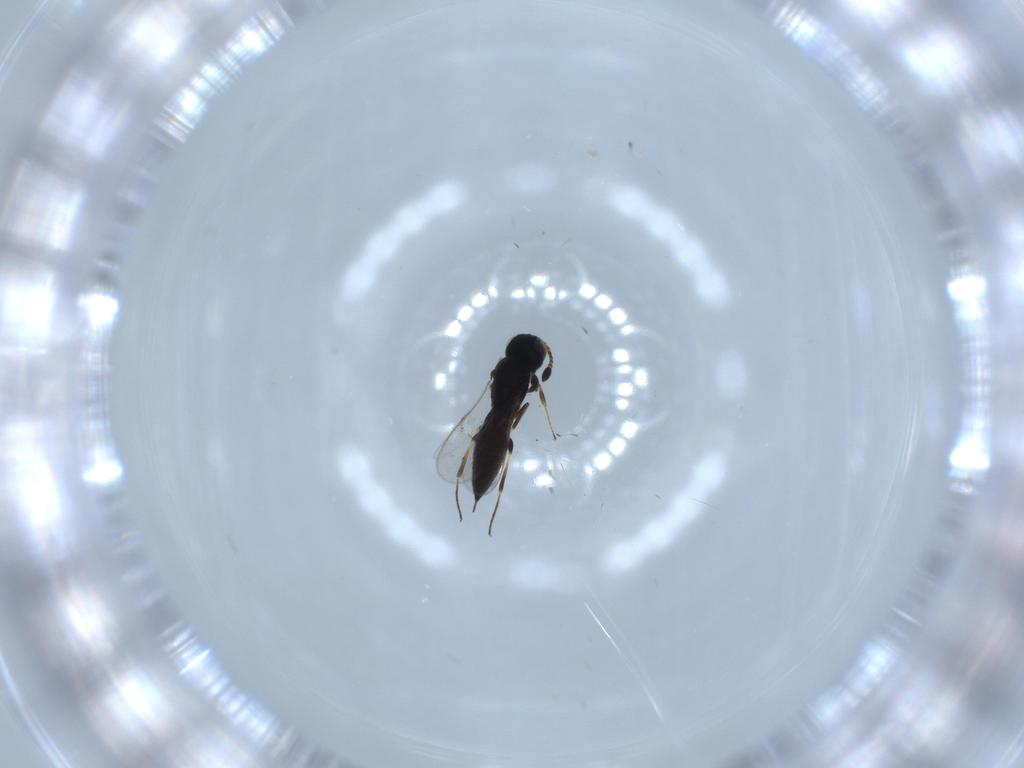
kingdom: Animalia
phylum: Arthropoda
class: Insecta
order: Hymenoptera
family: Scelionidae
